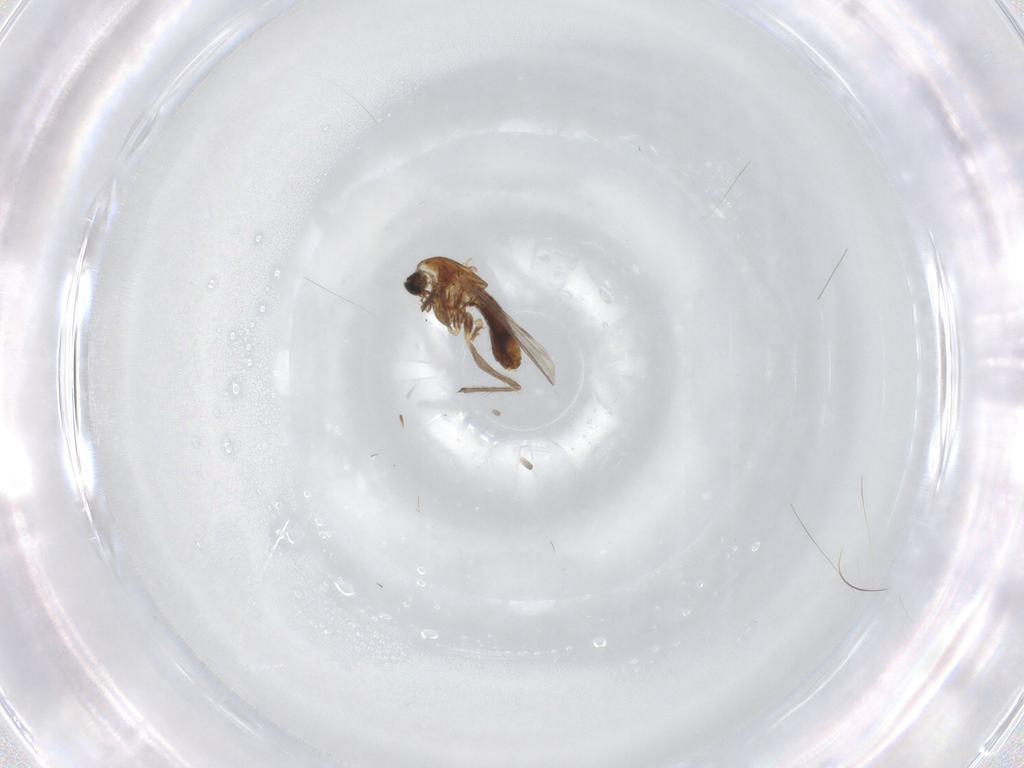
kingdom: Animalia
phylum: Arthropoda
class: Insecta
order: Diptera
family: Chironomidae
